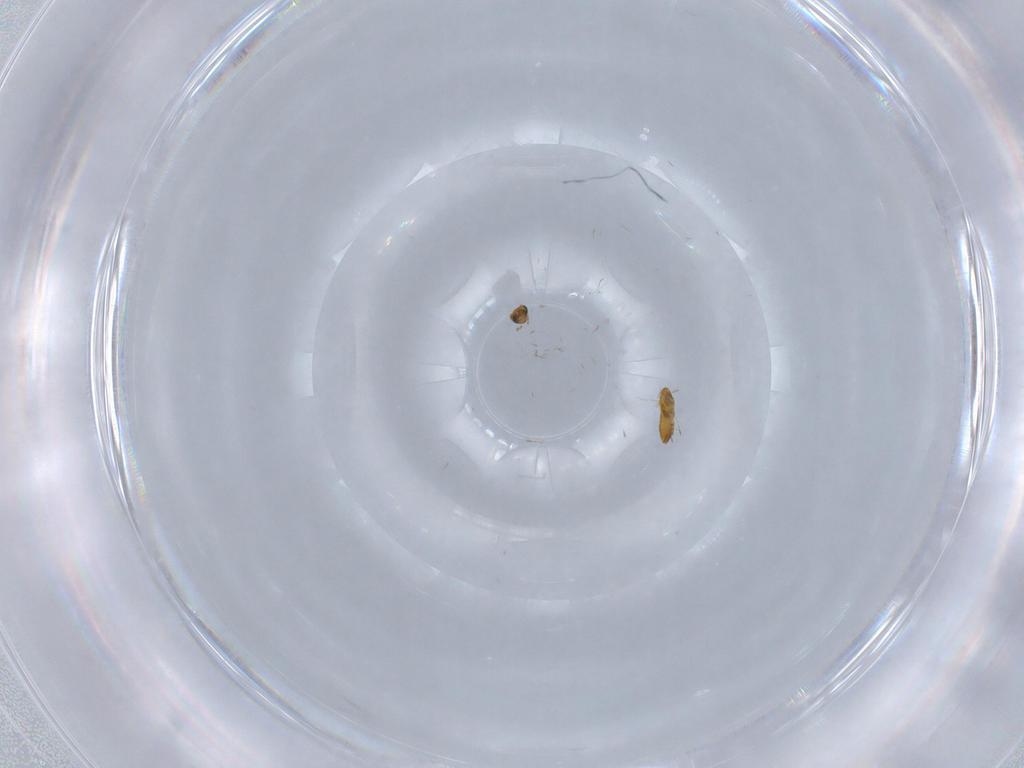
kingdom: Animalia
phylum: Arthropoda
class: Insecta
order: Hymenoptera
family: Trichogrammatidae
